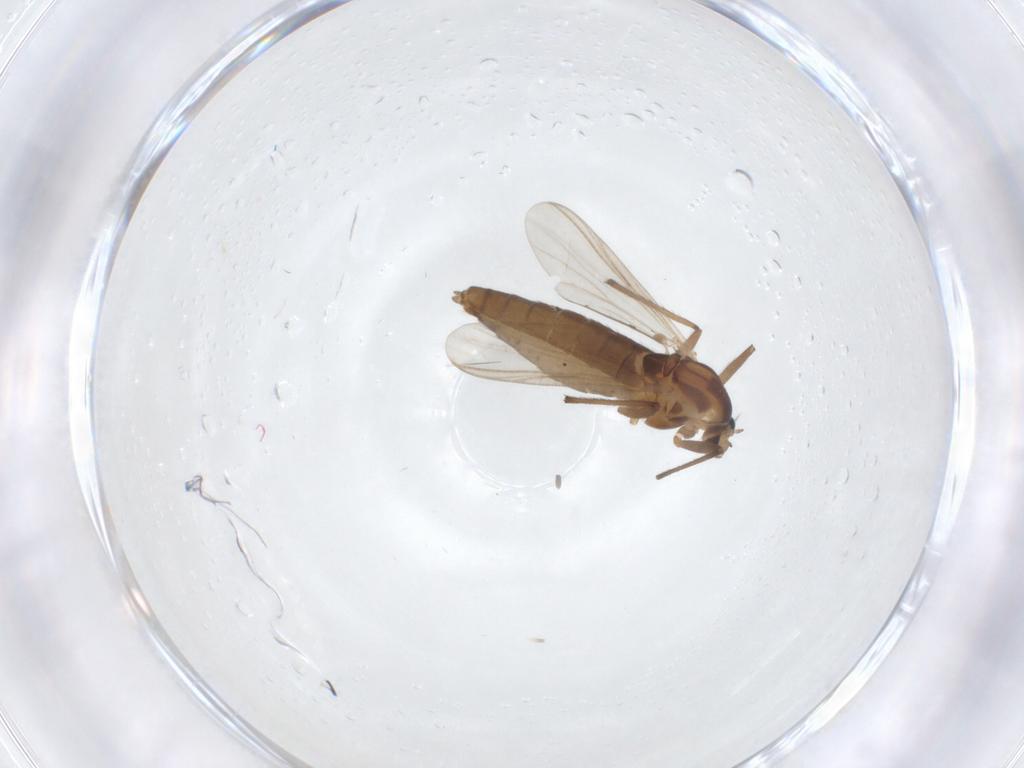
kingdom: Animalia
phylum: Arthropoda
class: Insecta
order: Diptera
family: Chironomidae
